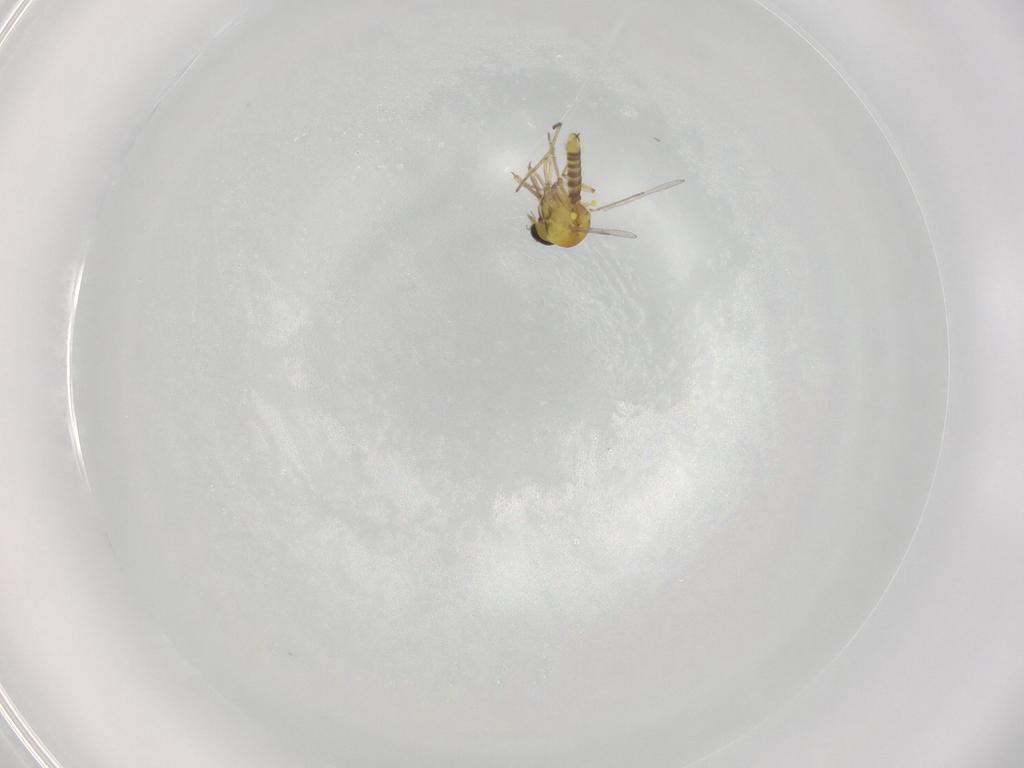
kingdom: Animalia
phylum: Arthropoda
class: Insecta
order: Diptera
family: Ceratopogonidae
